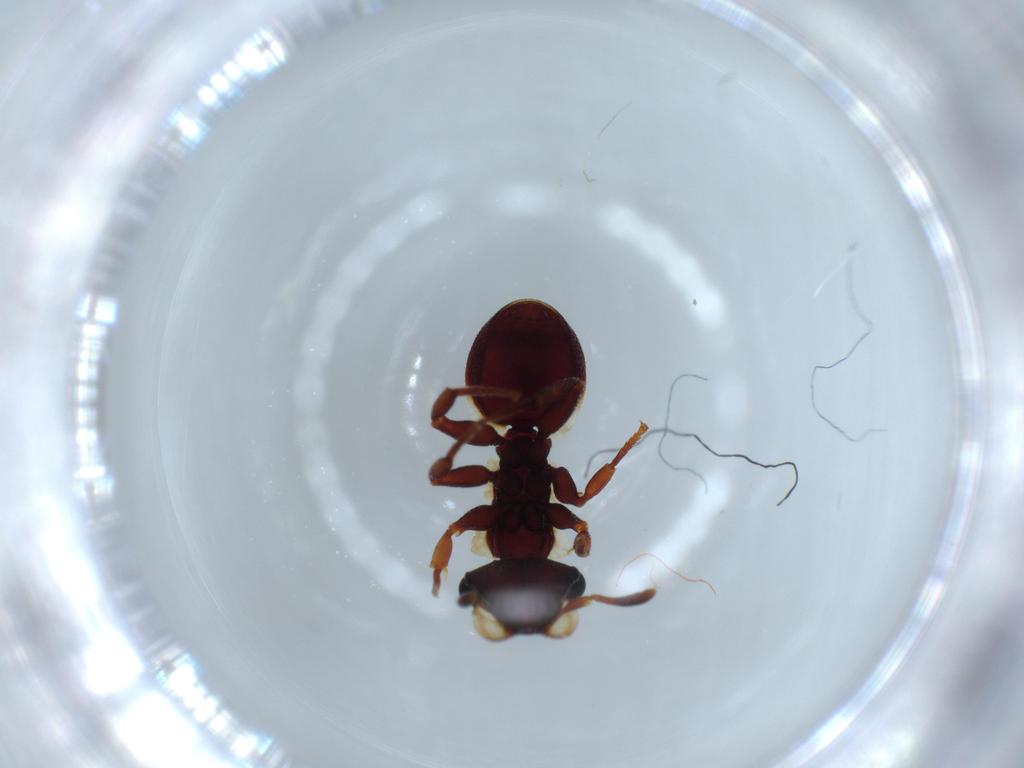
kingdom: Animalia
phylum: Arthropoda
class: Insecta
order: Hymenoptera
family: Formicidae
